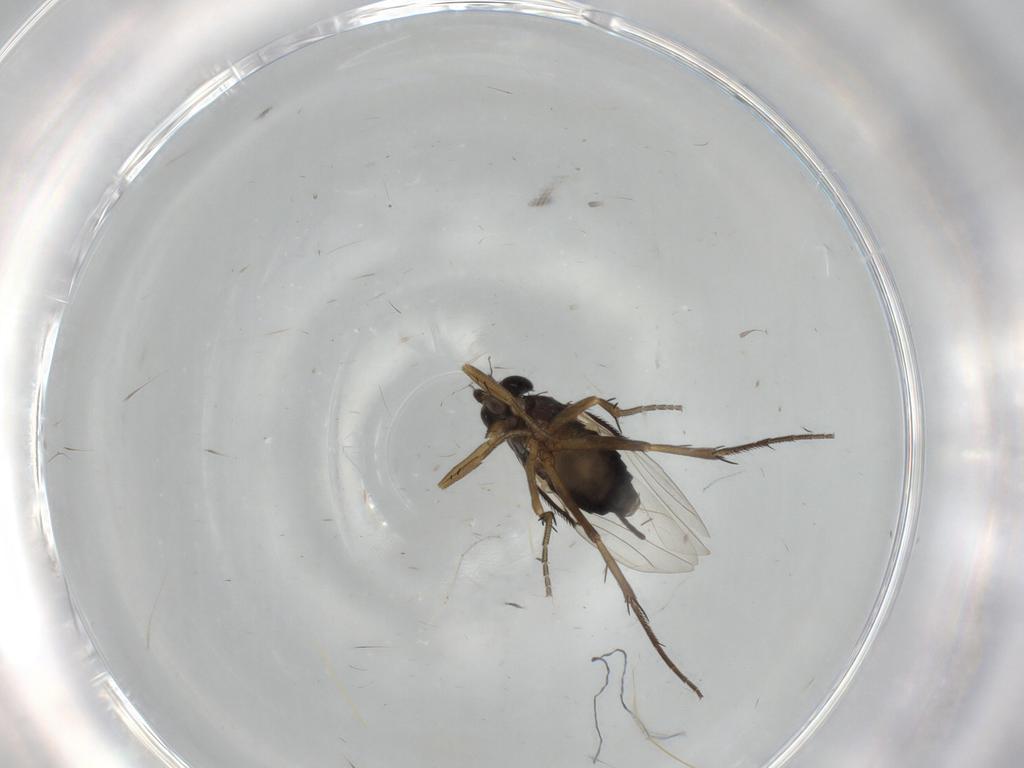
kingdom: Animalia
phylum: Arthropoda
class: Insecta
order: Diptera
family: Phoridae
